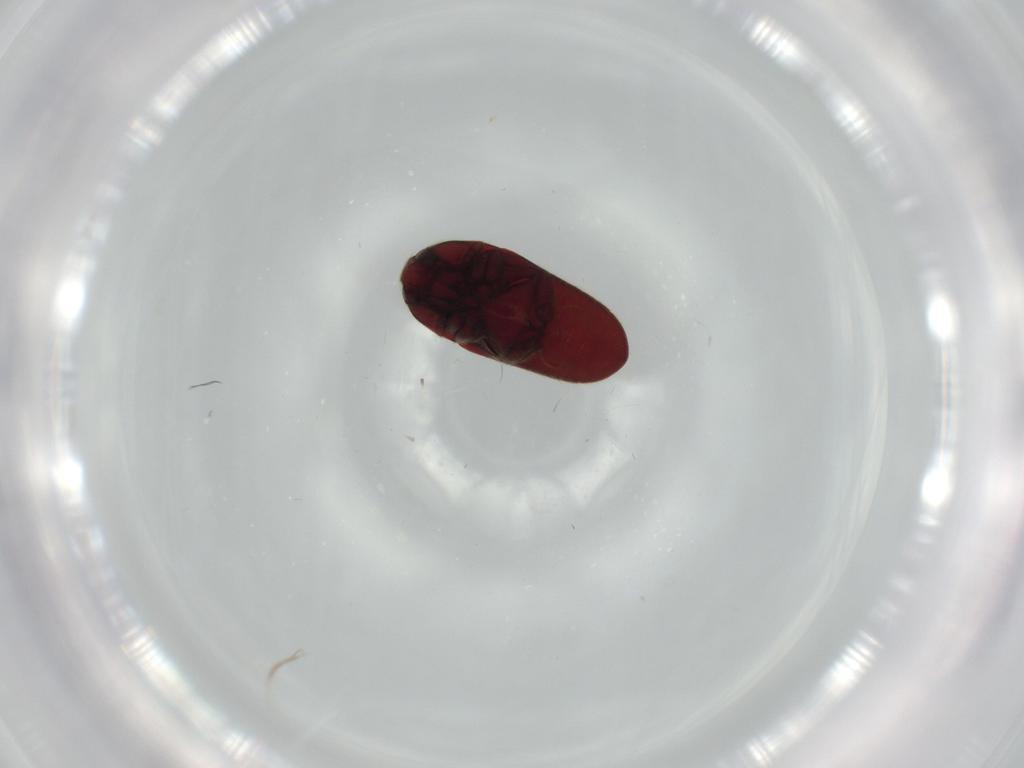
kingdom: Animalia
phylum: Arthropoda
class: Insecta
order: Coleoptera
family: Throscidae
